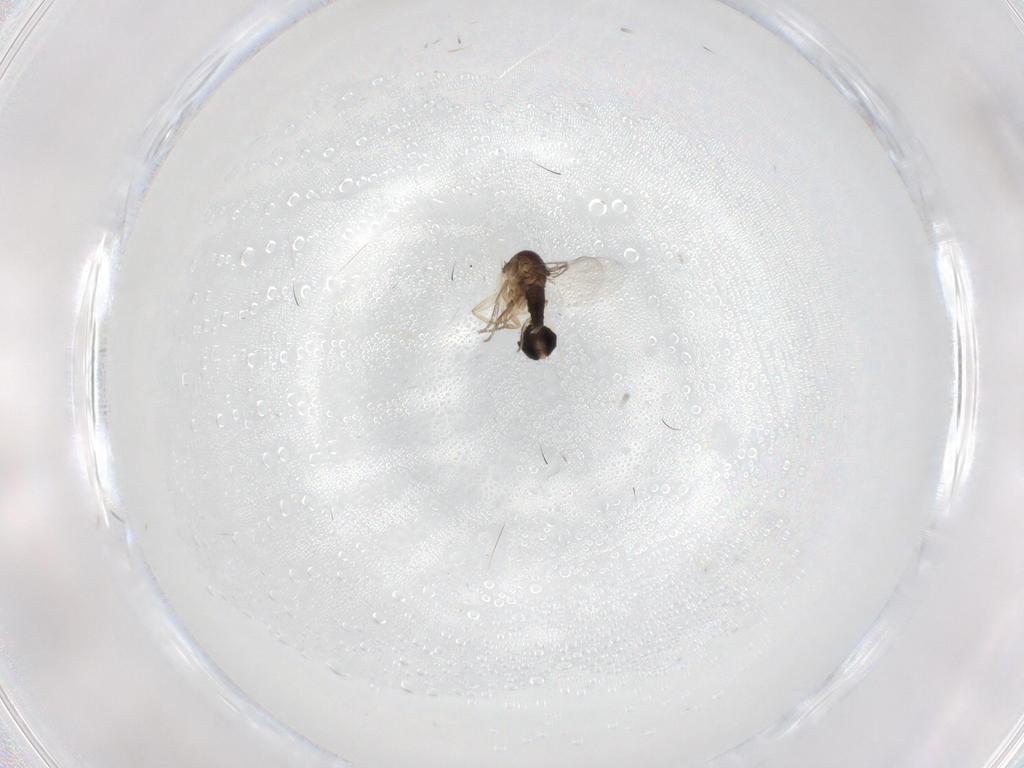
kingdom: Animalia
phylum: Arthropoda
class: Insecta
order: Diptera
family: Phoridae
